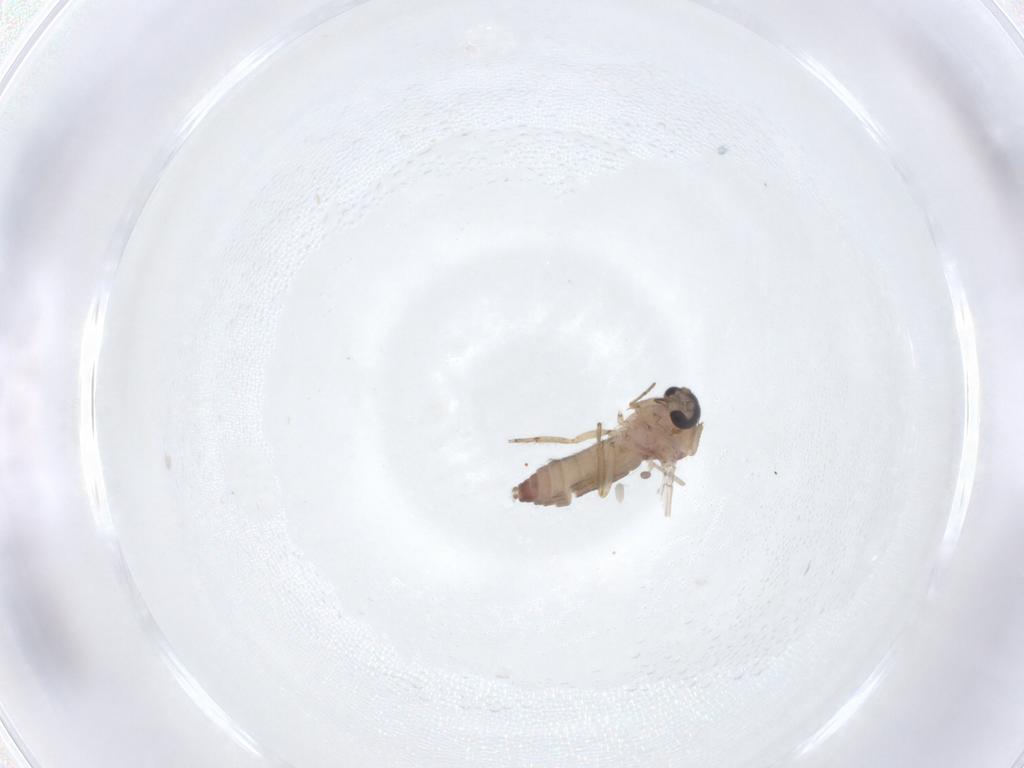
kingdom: Animalia
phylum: Arthropoda
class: Insecta
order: Diptera
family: Ceratopogonidae
